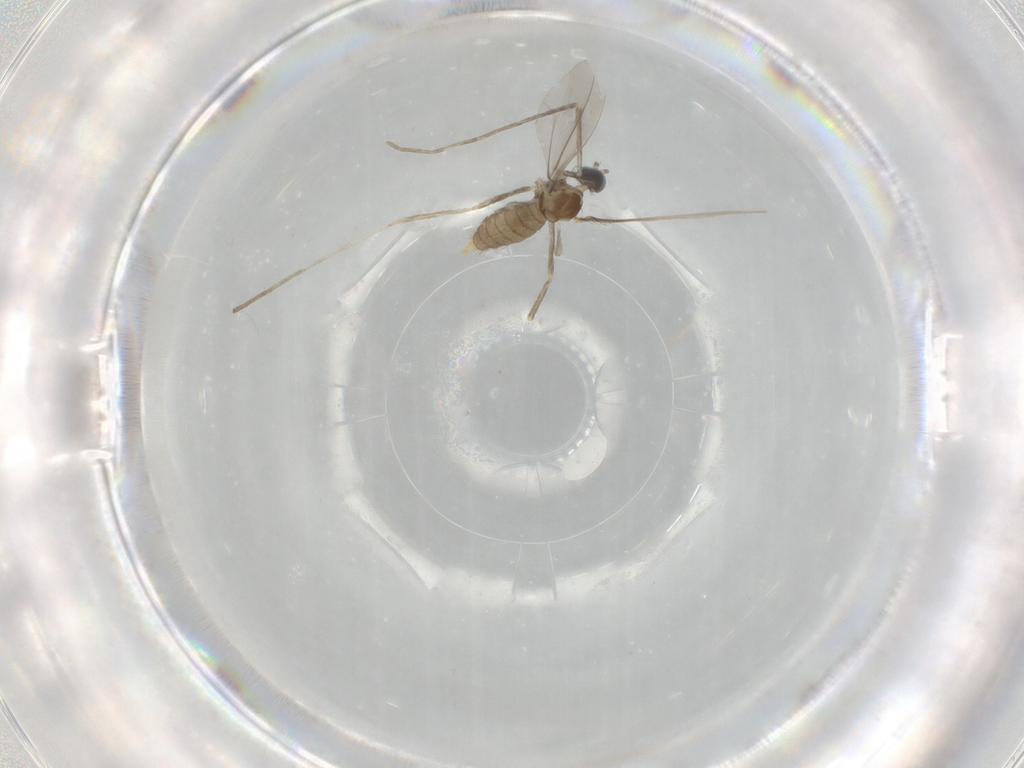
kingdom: Animalia
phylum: Arthropoda
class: Insecta
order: Diptera
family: Cecidomyiidae
